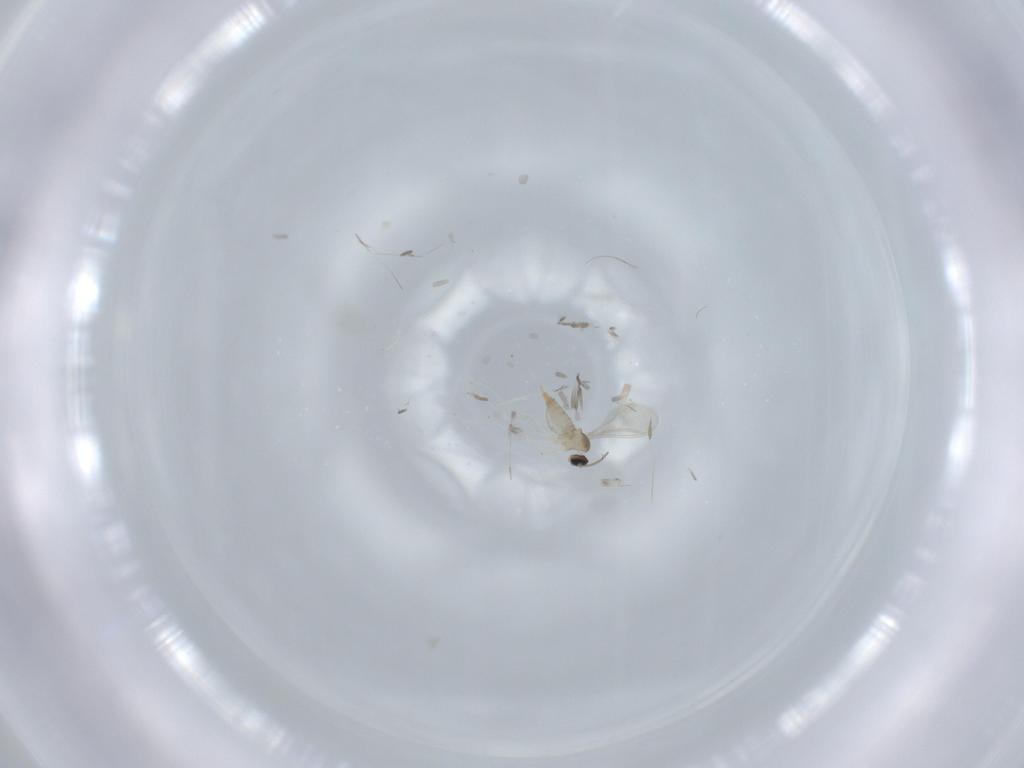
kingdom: Animalia
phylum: Arthropoda
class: Insecta
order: Diptera
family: Cecidomyiidae
